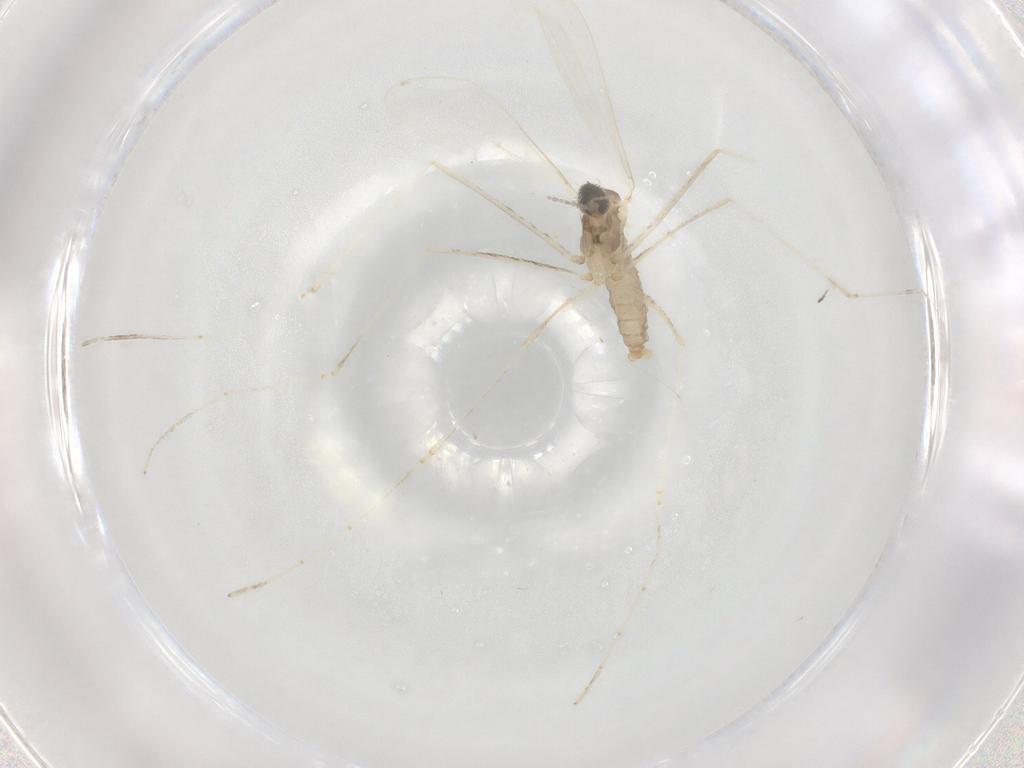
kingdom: Animalia
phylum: Arthropoda
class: Insecta
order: Diptera
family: Cecidomyiidae
